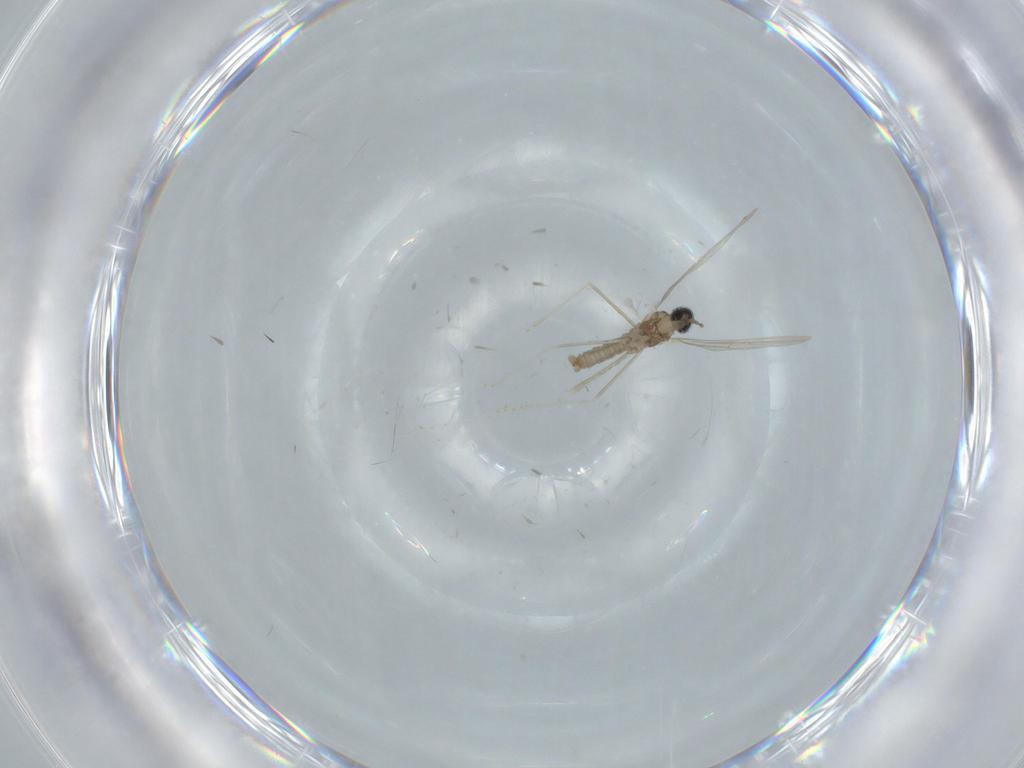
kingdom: Animalia
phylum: Arthropoda
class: Insecta
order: Diptera
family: Cecidomyiidae
